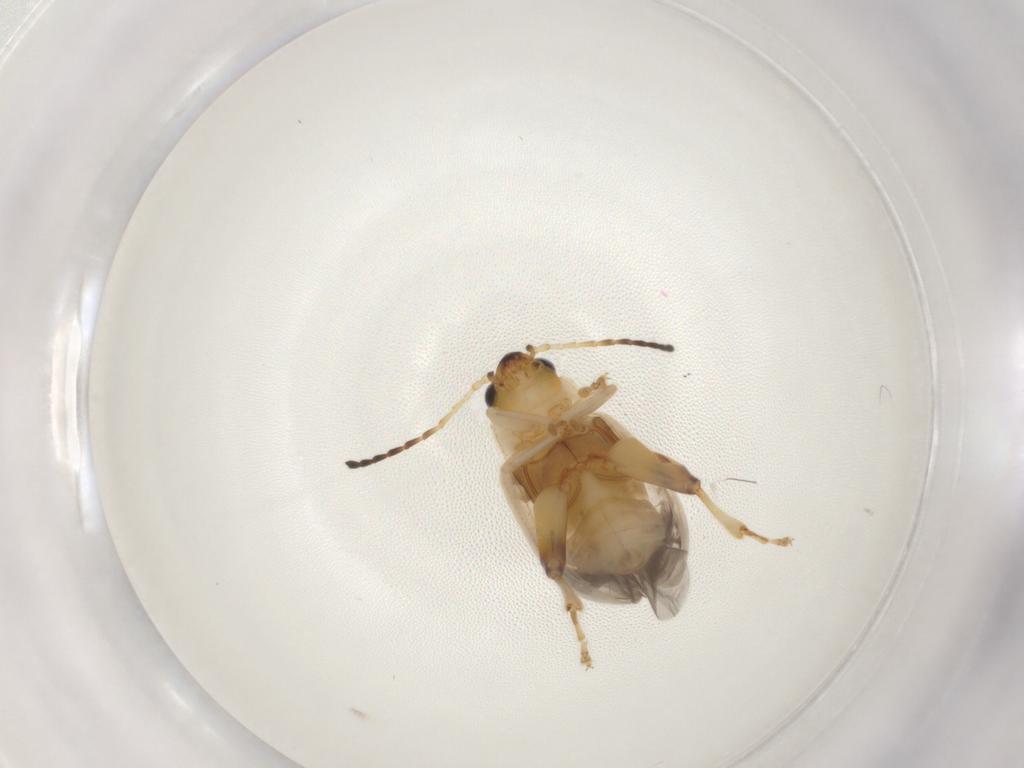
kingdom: Animalia
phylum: Arthropoda
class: Insecta
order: Coleoptera
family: Chrysomelidae
